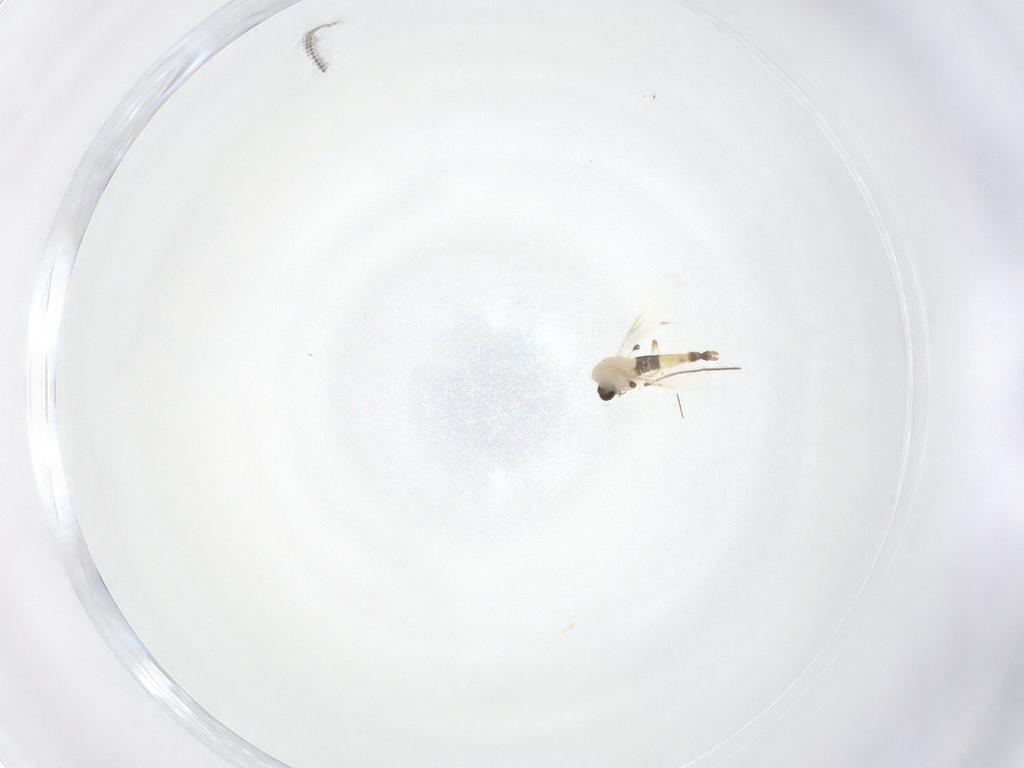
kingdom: Animalia
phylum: Arthropoda
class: Insecta
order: Diptera
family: Chironomidae
